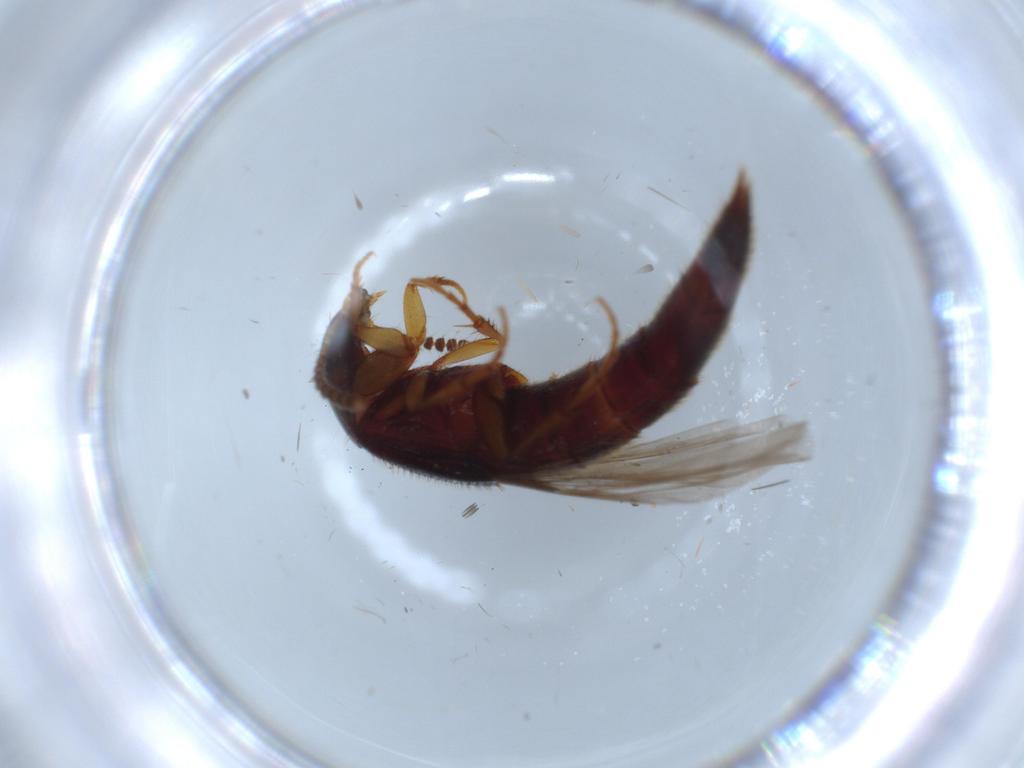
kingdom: Animalia
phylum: Arthropoda
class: Insecta
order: Coleoptera
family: Staphylinidae
